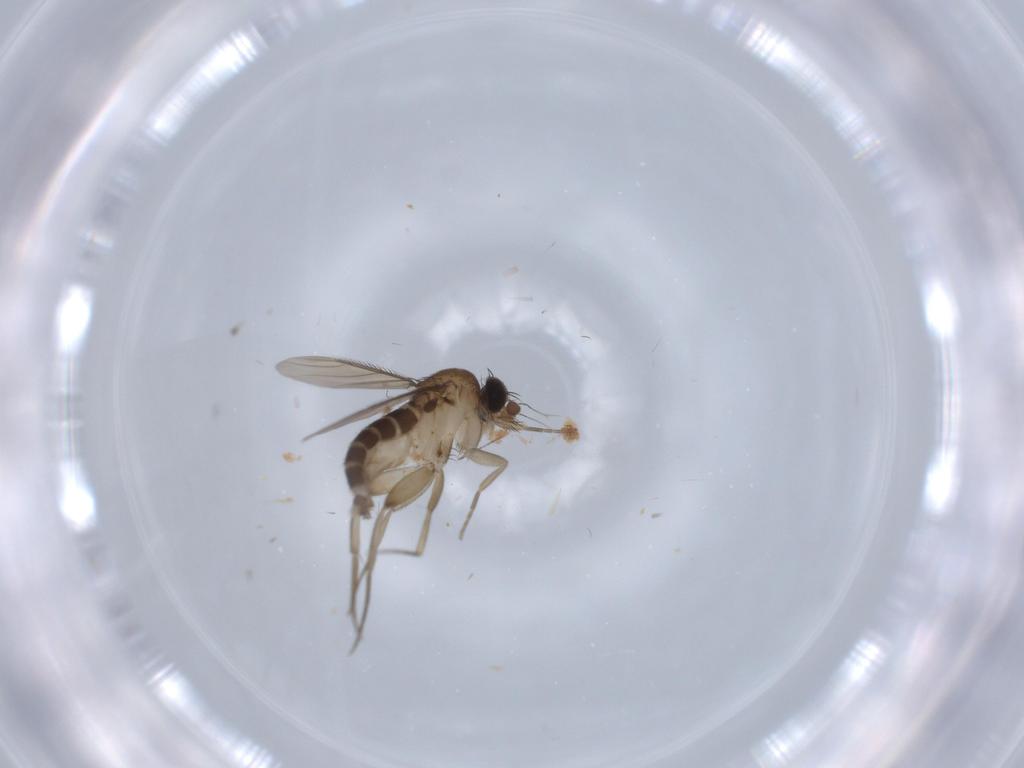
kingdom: Animalia
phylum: Arthropoda
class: Insecta
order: Diptera
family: Phoridae
